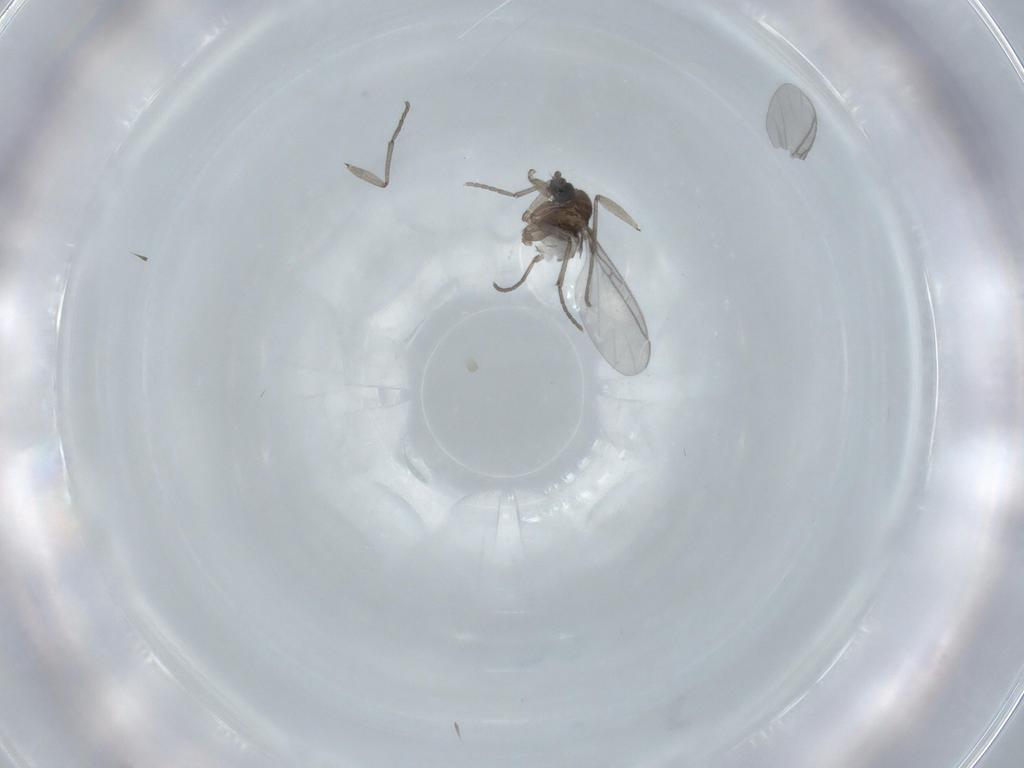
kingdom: Animalia
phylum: Arthropoda
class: Insecta
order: Diptera
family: Sciaridae
